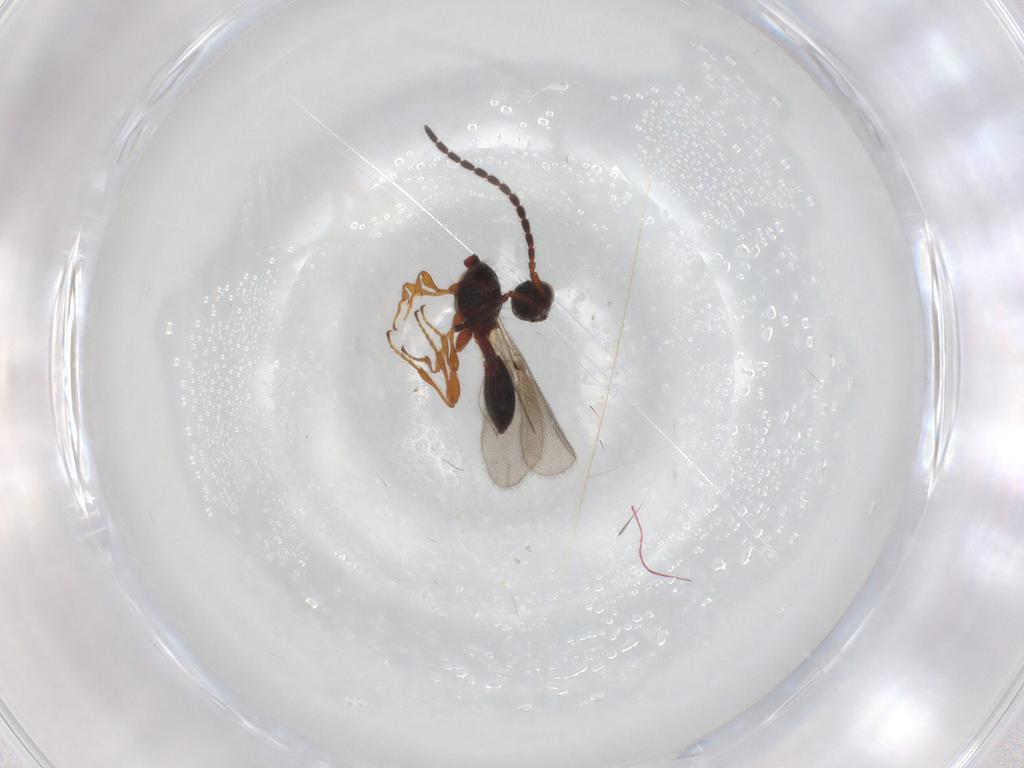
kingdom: Animalia
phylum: Arthropoda
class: Insecta
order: Hymenoptera
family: Diapriidae
